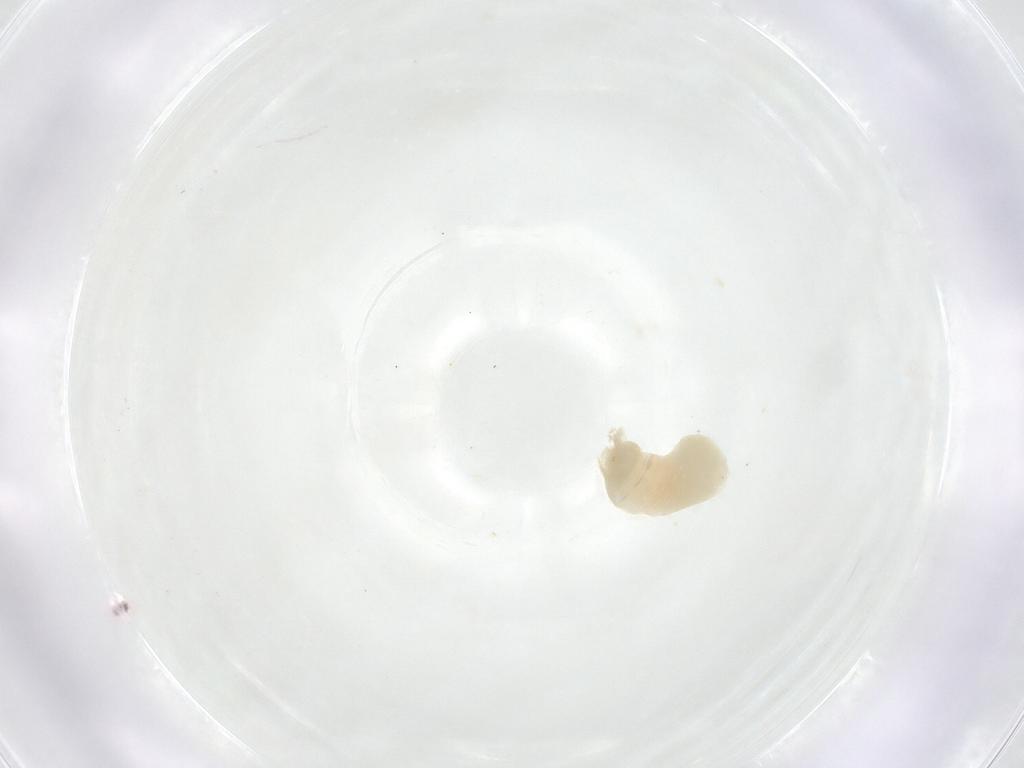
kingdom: Animalia
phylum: Arthropoda
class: Insecta
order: Diptera
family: Fergusoninidae
